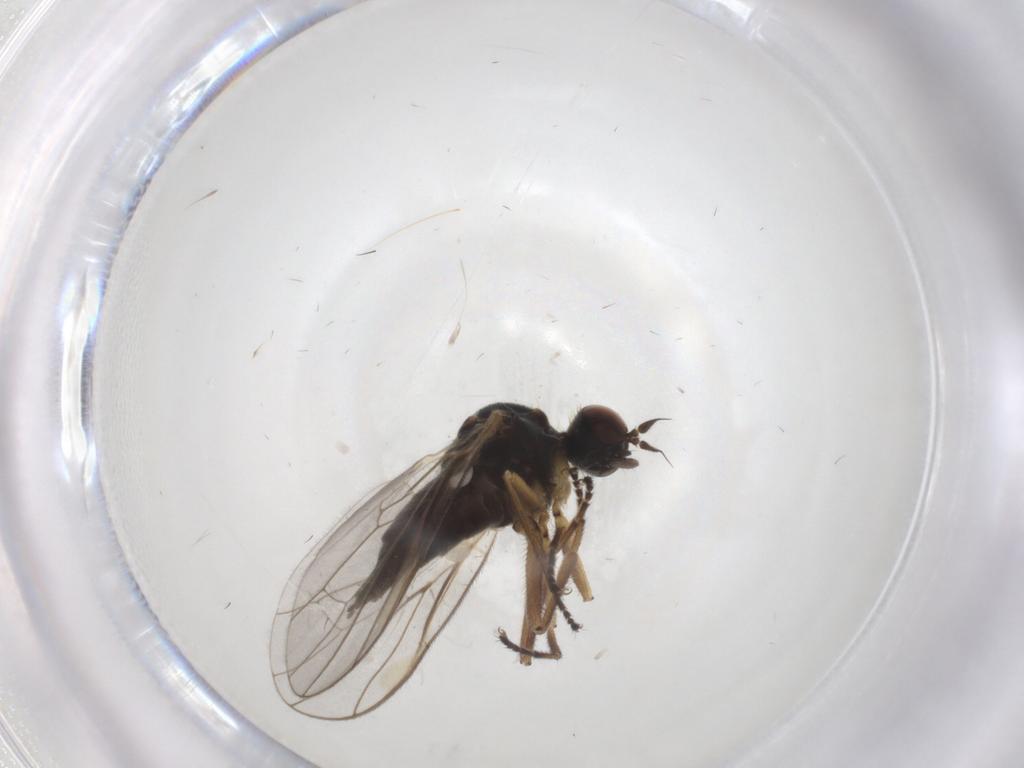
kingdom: Animalia
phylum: Arthropoda
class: Insecta
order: Diptera
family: Hybotidae
